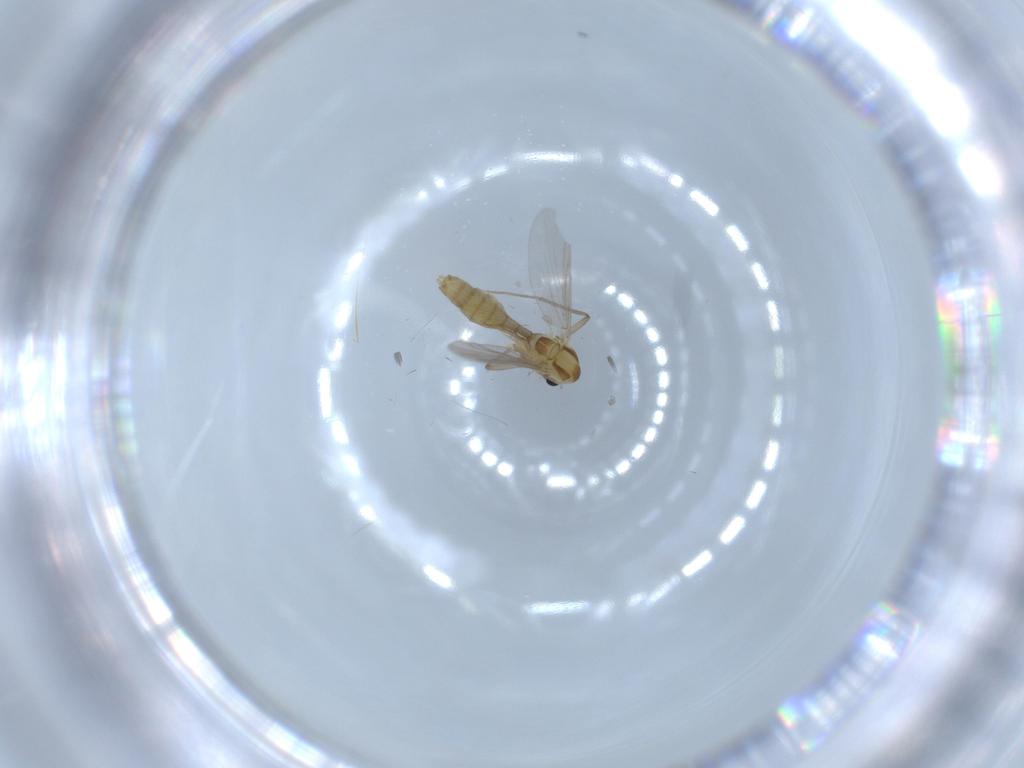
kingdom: Animalia
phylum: Arthropoda
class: Insecta
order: Diptera
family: Chironomidae
